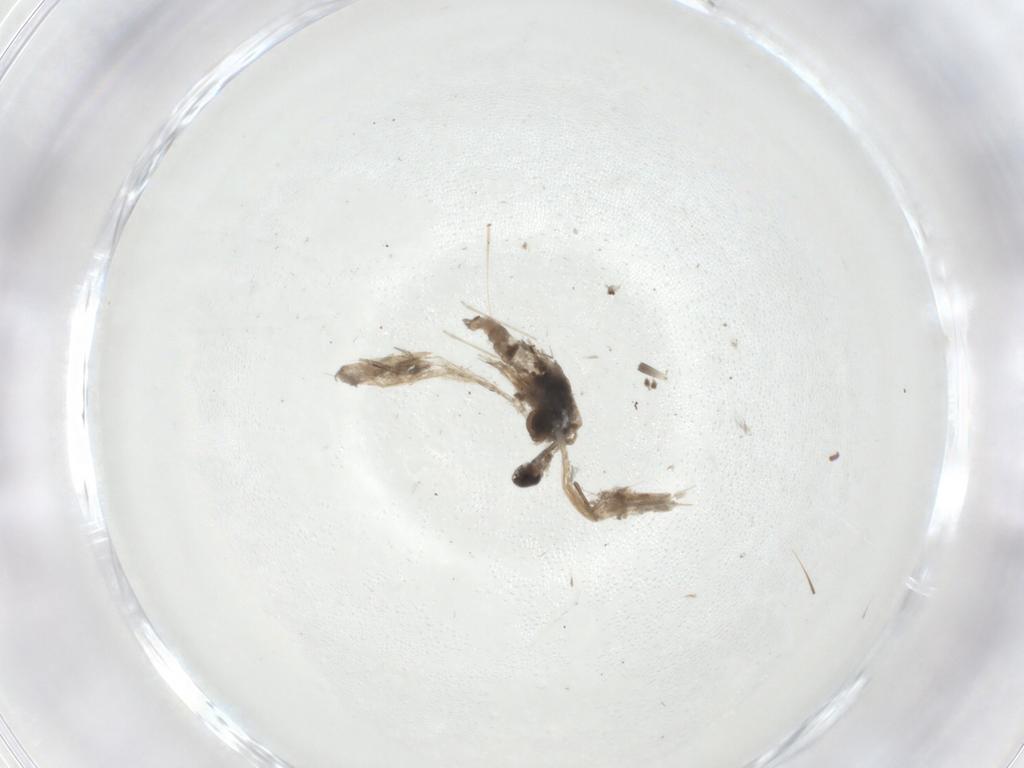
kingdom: Animalia
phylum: Arthropoda
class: Insecta
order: Diptera
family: Cecidomyiidae
